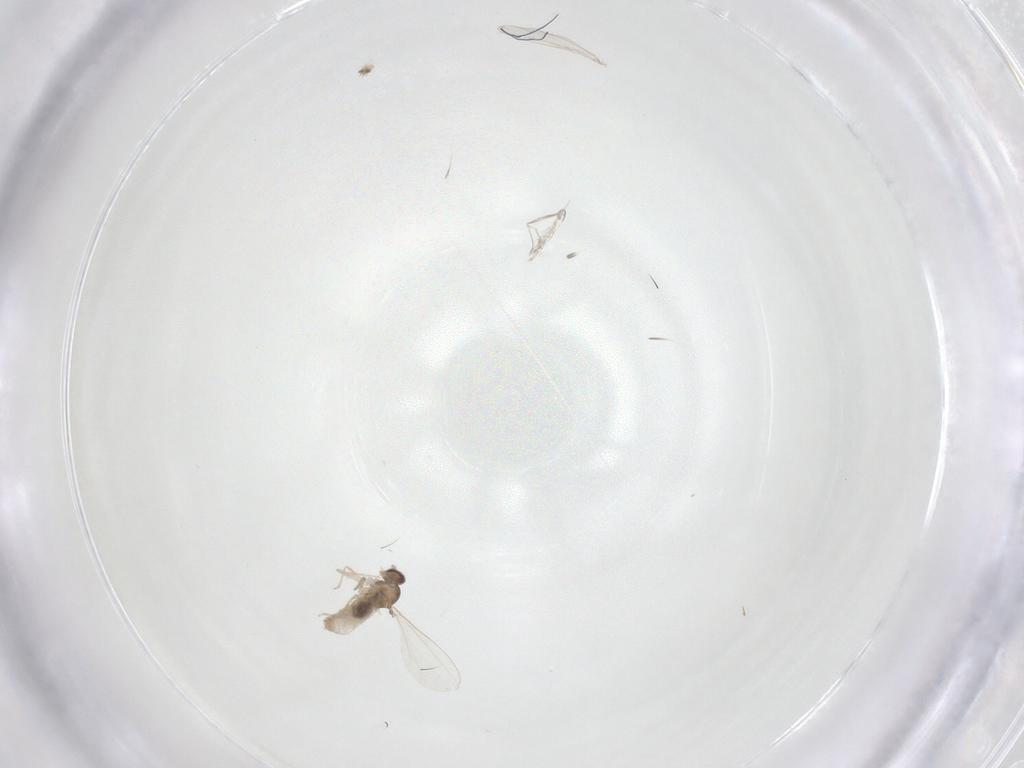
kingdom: Animalia
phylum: Arthropoda
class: Insecta
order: Diptera
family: Cecidomyiidae
